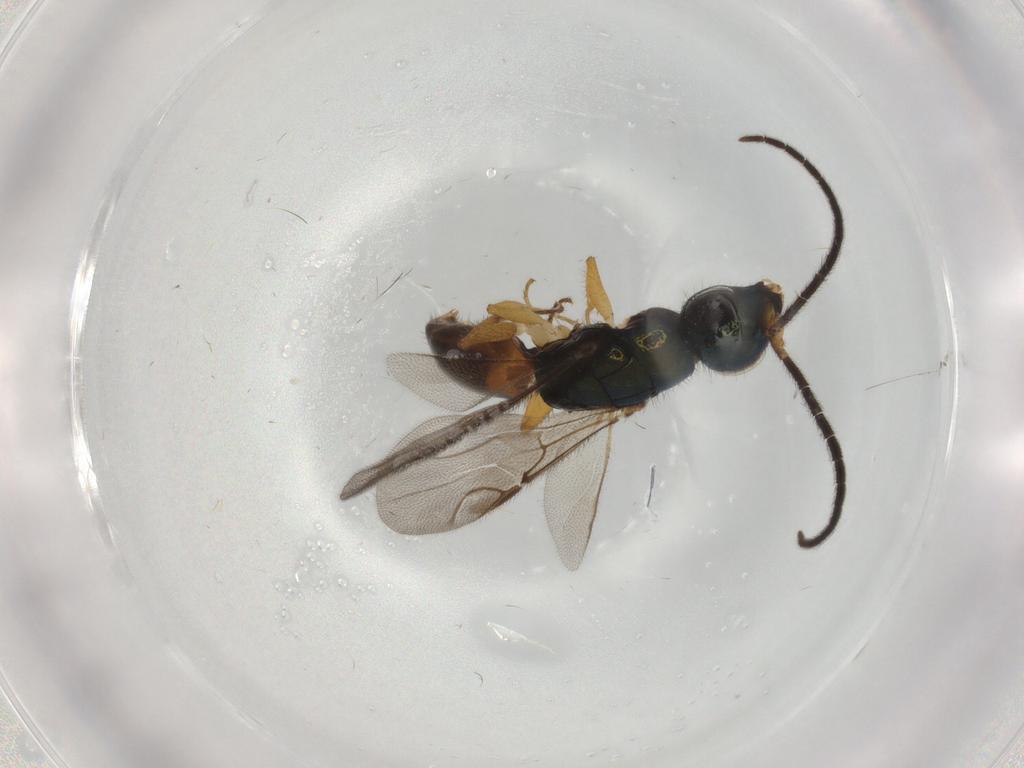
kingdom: Animalia
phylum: Arthropoda
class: Insecta
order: Hymenoptera
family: Chrysididae
